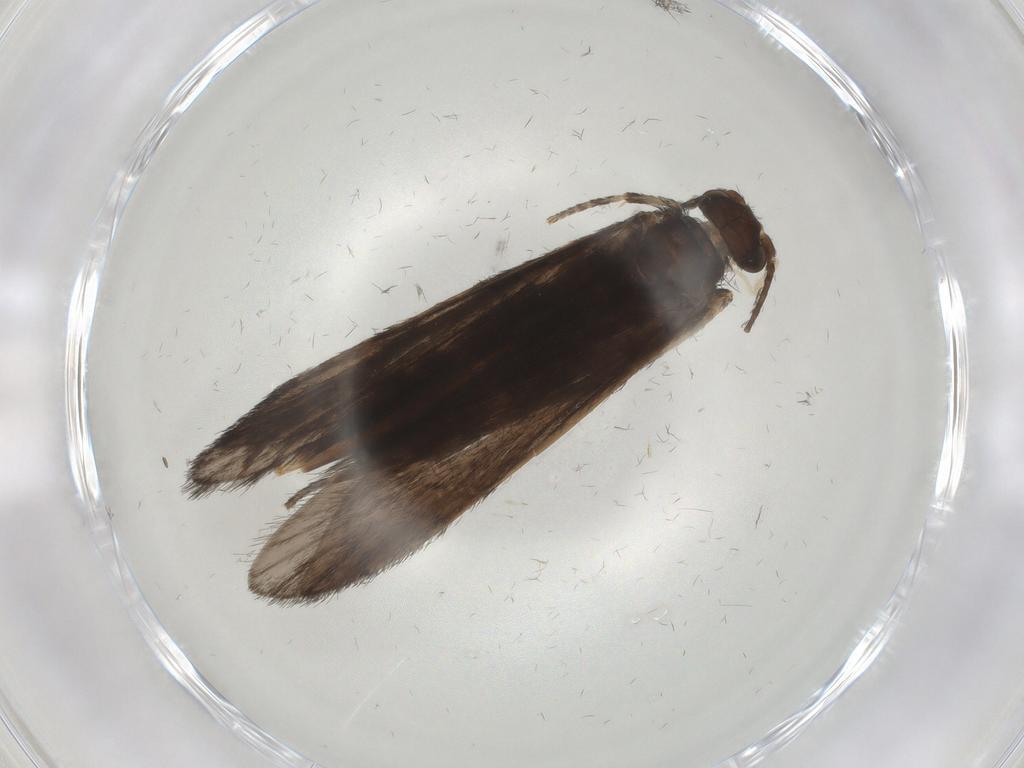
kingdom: Animalia
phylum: Arthropoda
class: Insecta
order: Trichoptera
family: Xiphocentronidae
